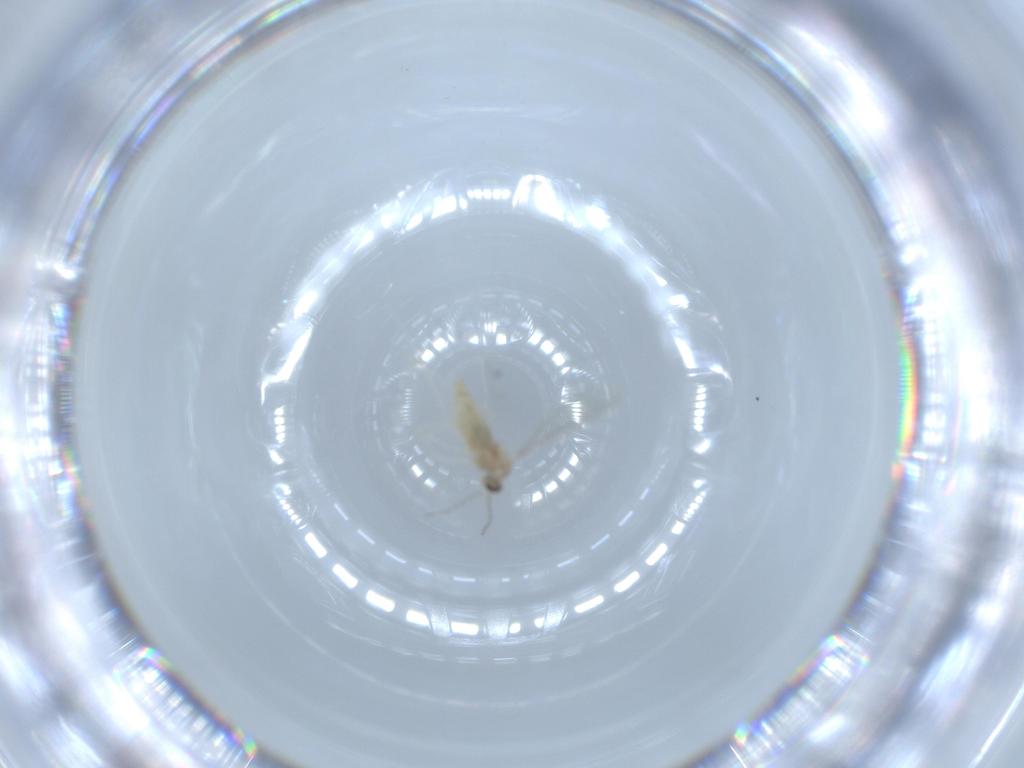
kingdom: Animalia
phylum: Arthropoda
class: Insecta
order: Diptera
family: Cecidomyiidae
